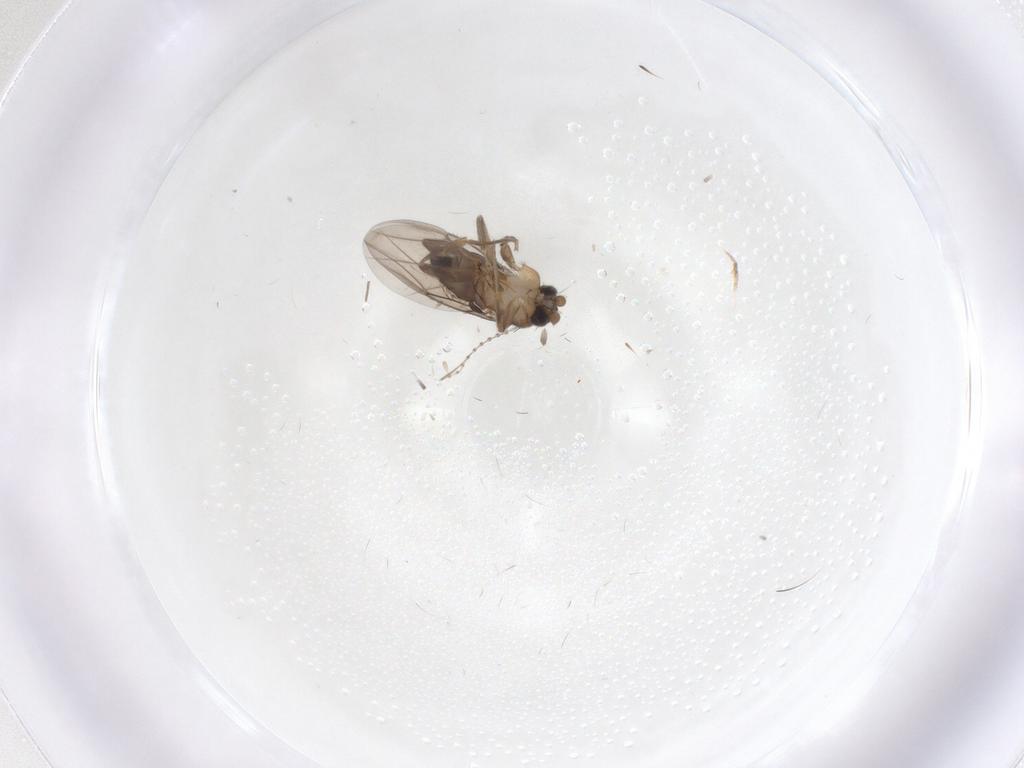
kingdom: Animalia
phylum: Arthropoda
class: Insecta
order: Diptera
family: Phoridae
